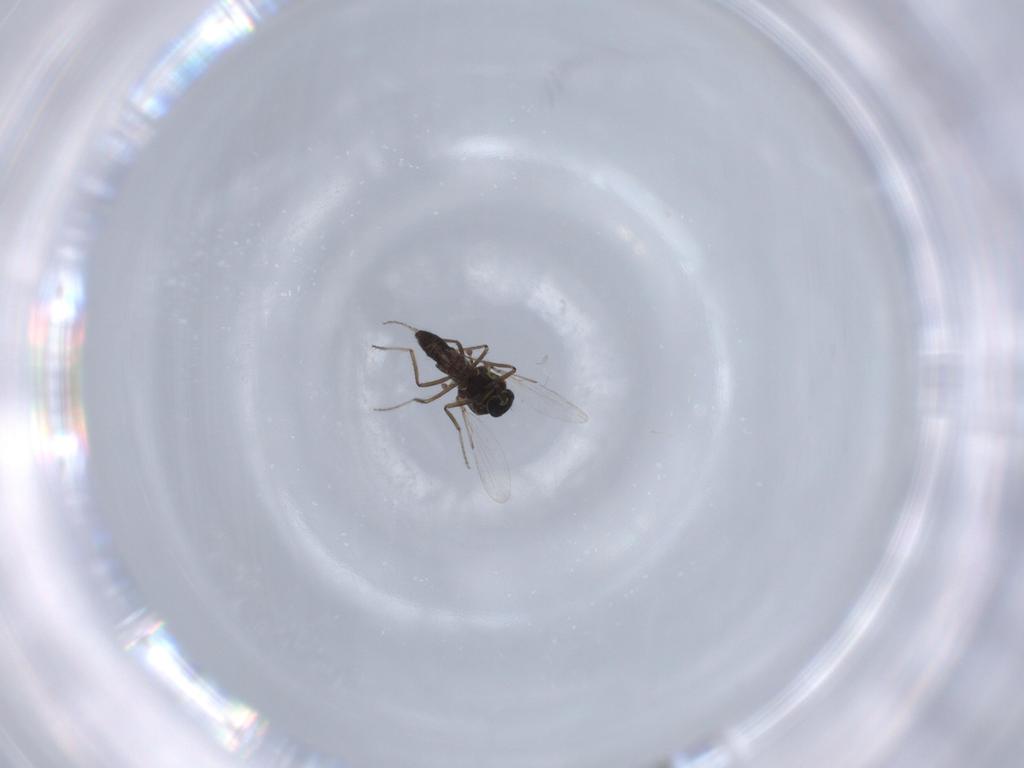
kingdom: Animalia
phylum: Arthropoda
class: Insecta
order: Diptera
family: Ceratopogonidae
